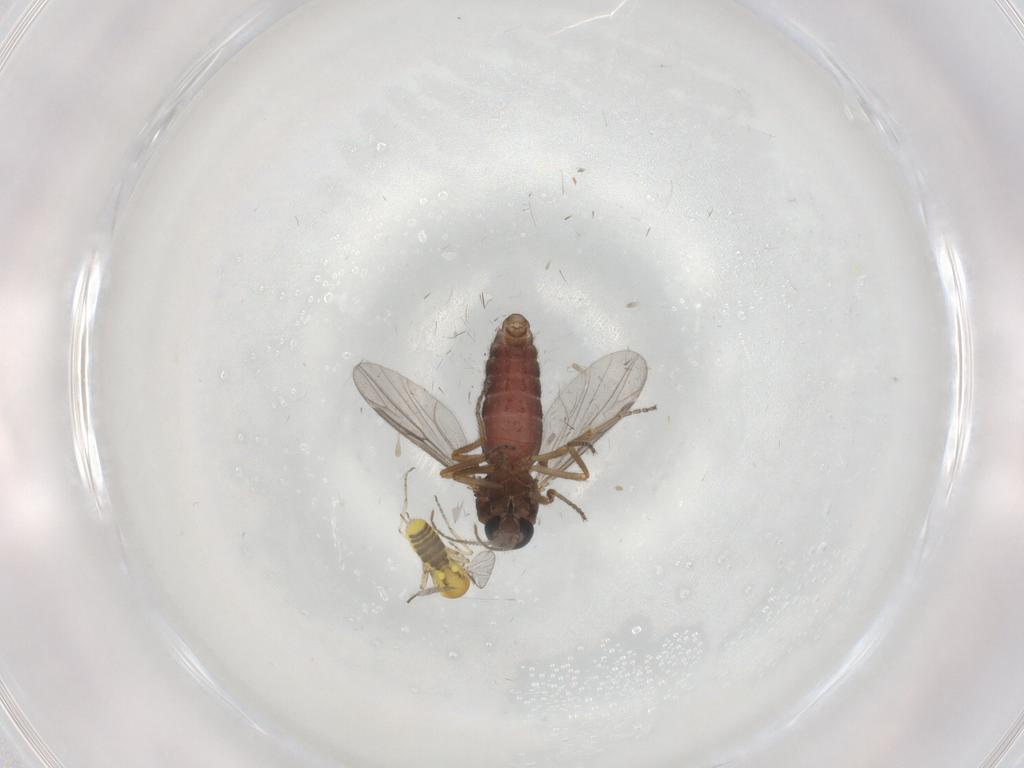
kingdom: Animalia
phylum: Arthropoda
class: Insecta
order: Diptera
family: Ceratopogonidae
